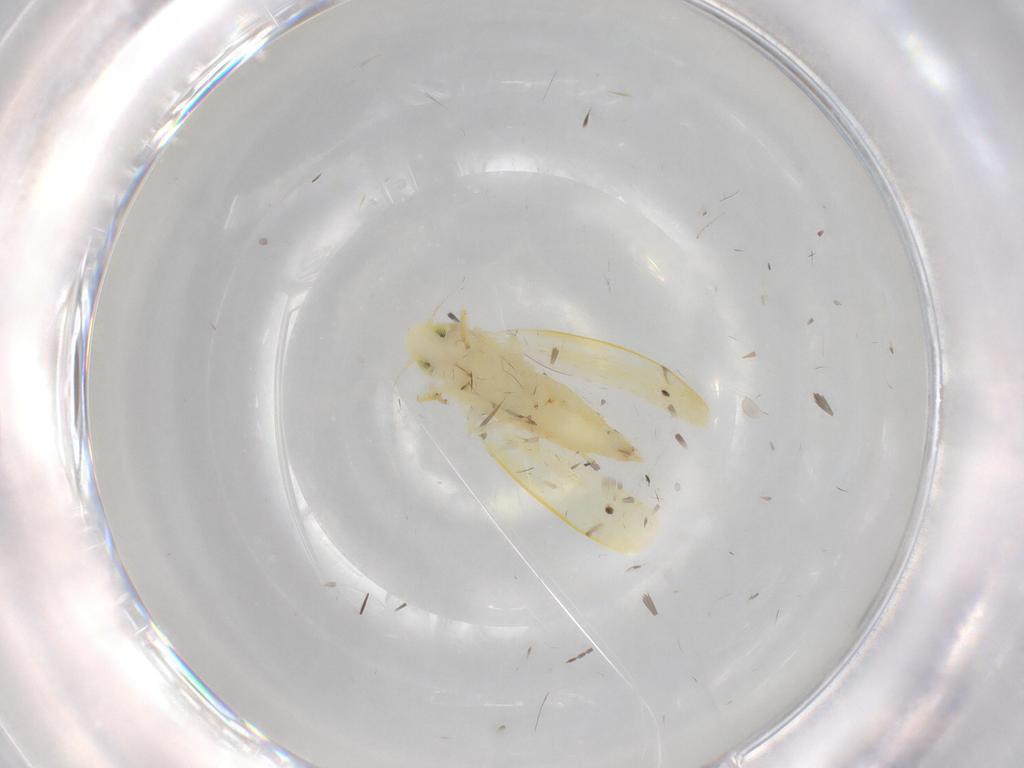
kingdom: Animalia
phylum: Arthropoda
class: Insecta
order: Hemiptera
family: Cicadellidae
